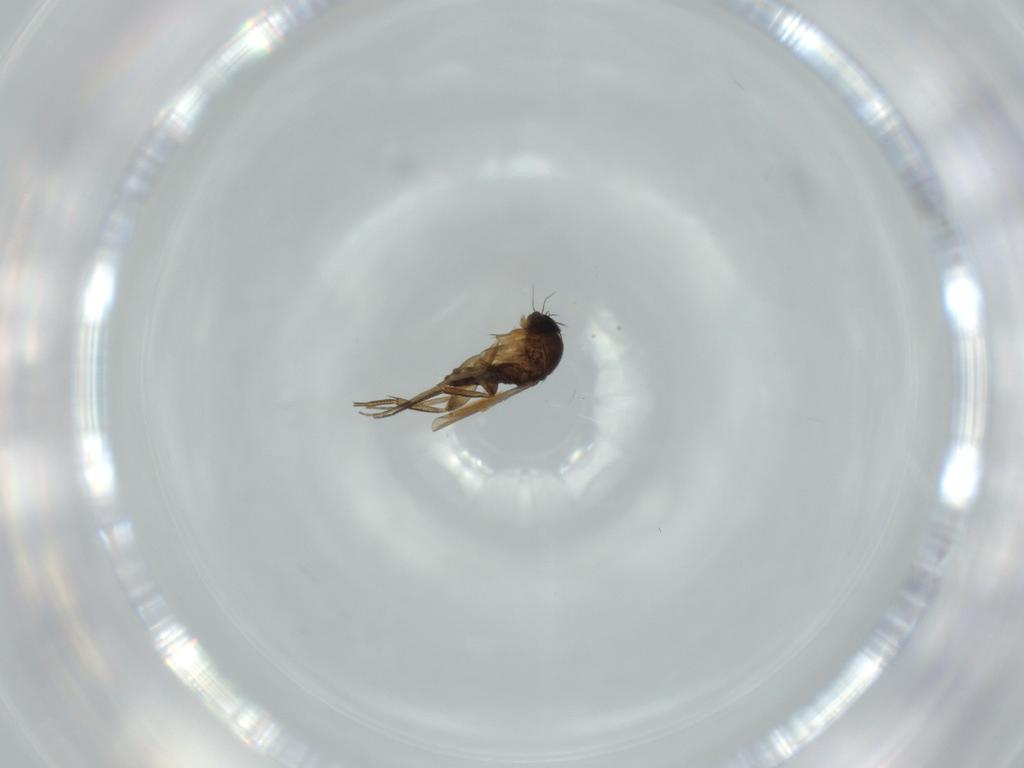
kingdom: Animalia
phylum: Arthropoda
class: Insecta
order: Diptera
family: Phoridae
